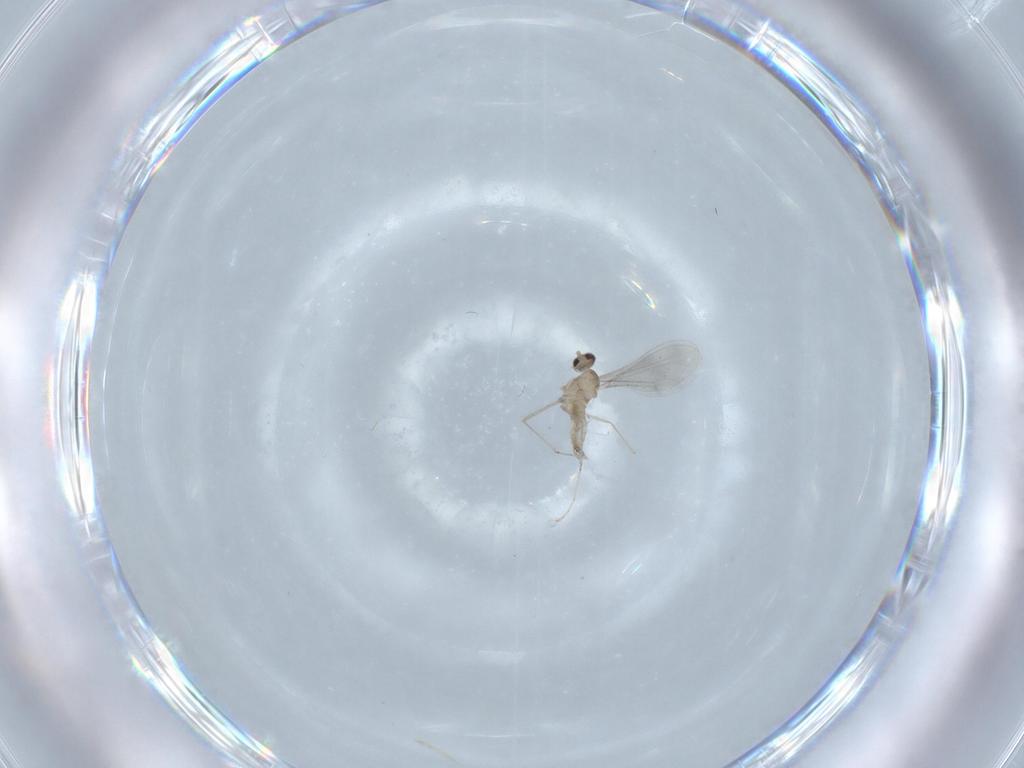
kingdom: Animalia
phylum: Arthropoda
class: Insecta
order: Diptera
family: Cecidomyiidae
